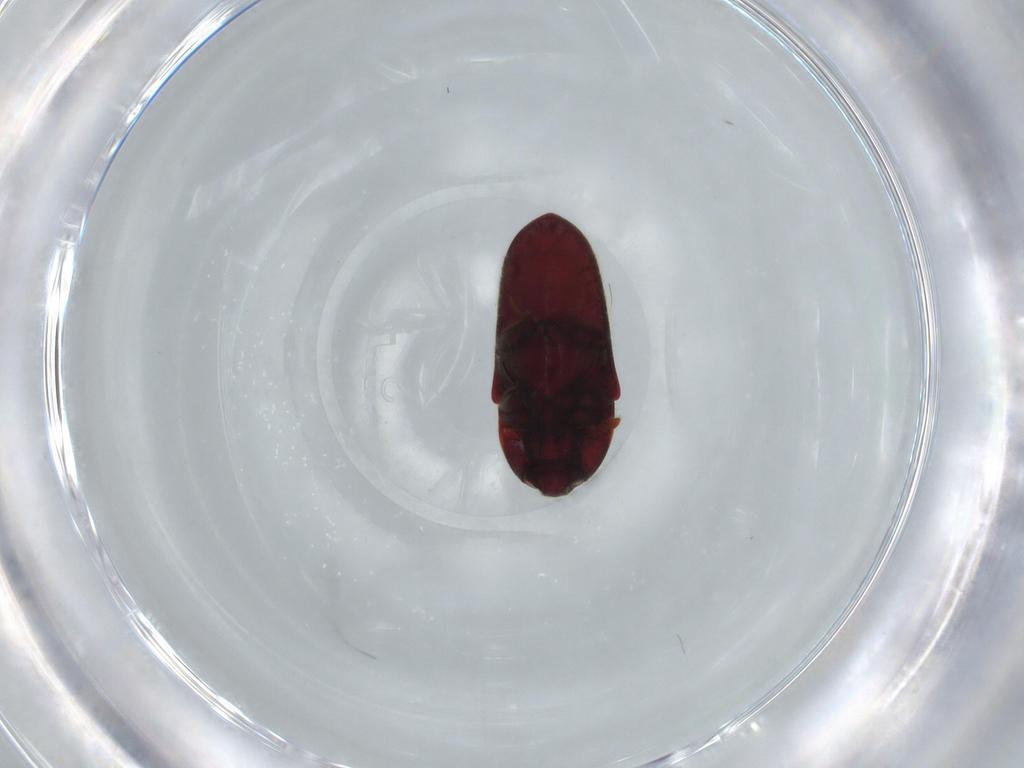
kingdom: Animalia
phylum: Arthropoda
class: Insecta
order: Coleoptera
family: Throscidae
